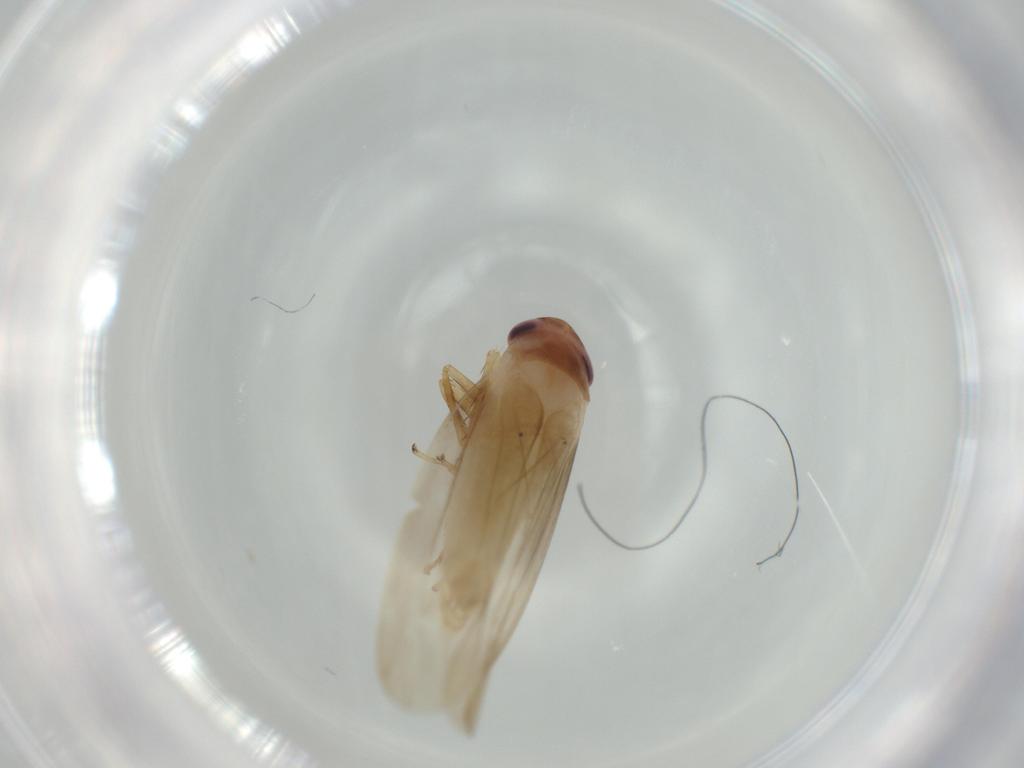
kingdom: Animalia
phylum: Arthropoda
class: Insecta
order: Hemiptera
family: Cicadellidae
